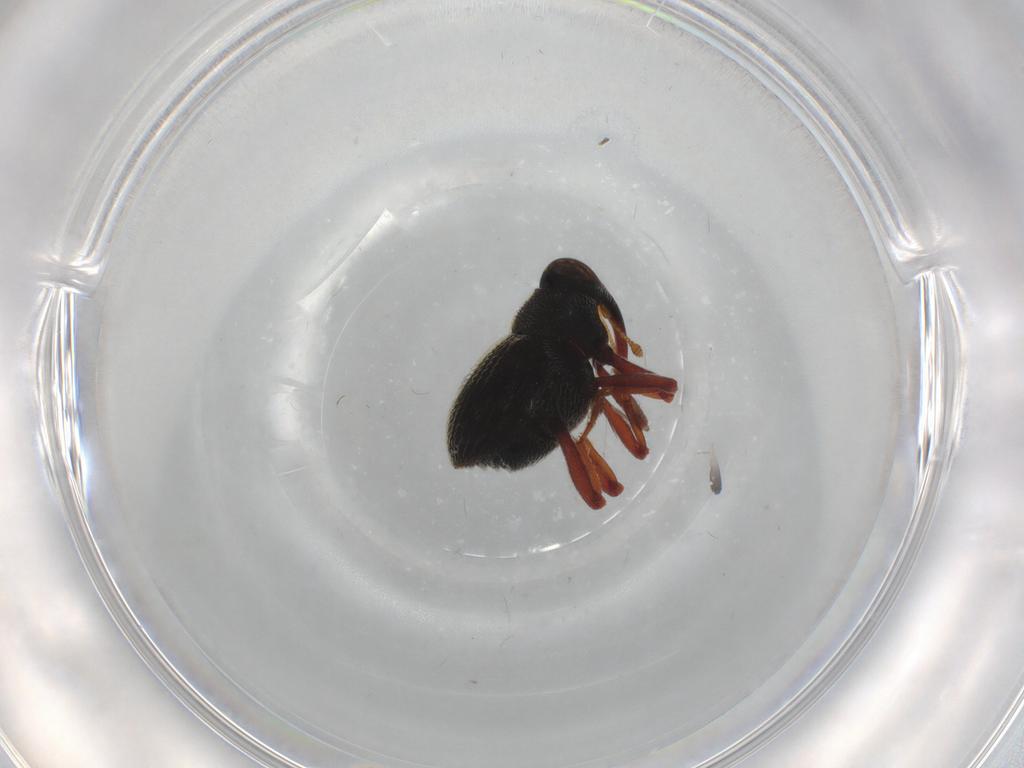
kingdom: Animalia
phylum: Arthropoda
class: Insecta
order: Coleoptera
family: Curculionidae
